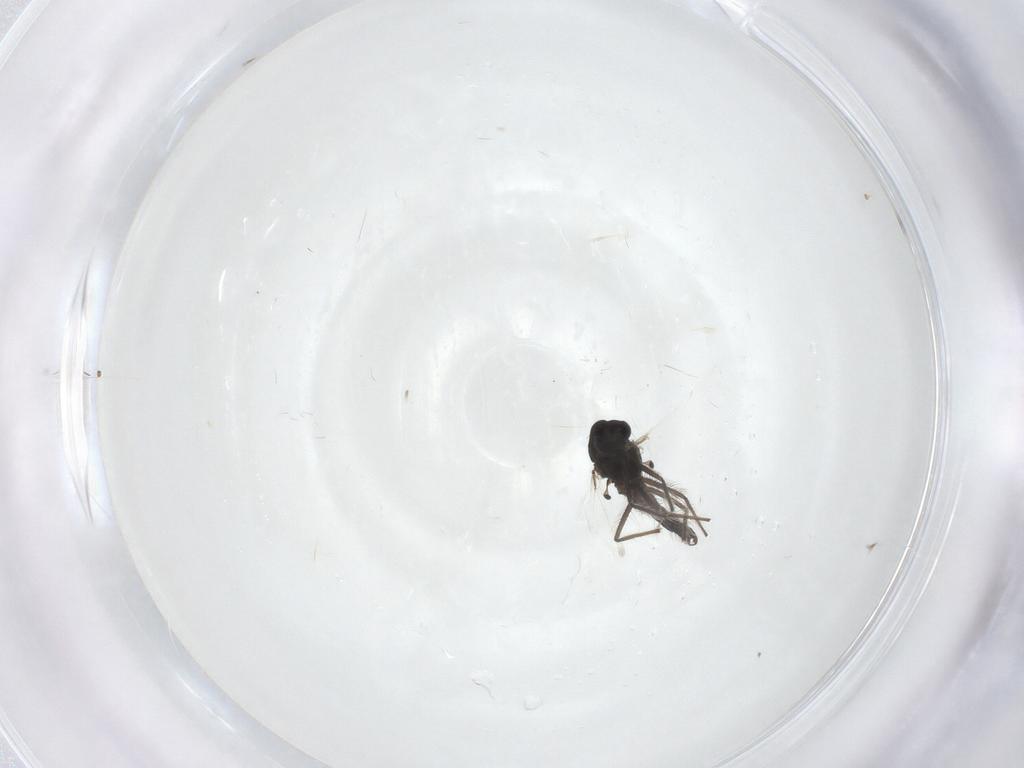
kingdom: Animalia
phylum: Arthropoda
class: Insecta
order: Diptera
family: Chironomidae
